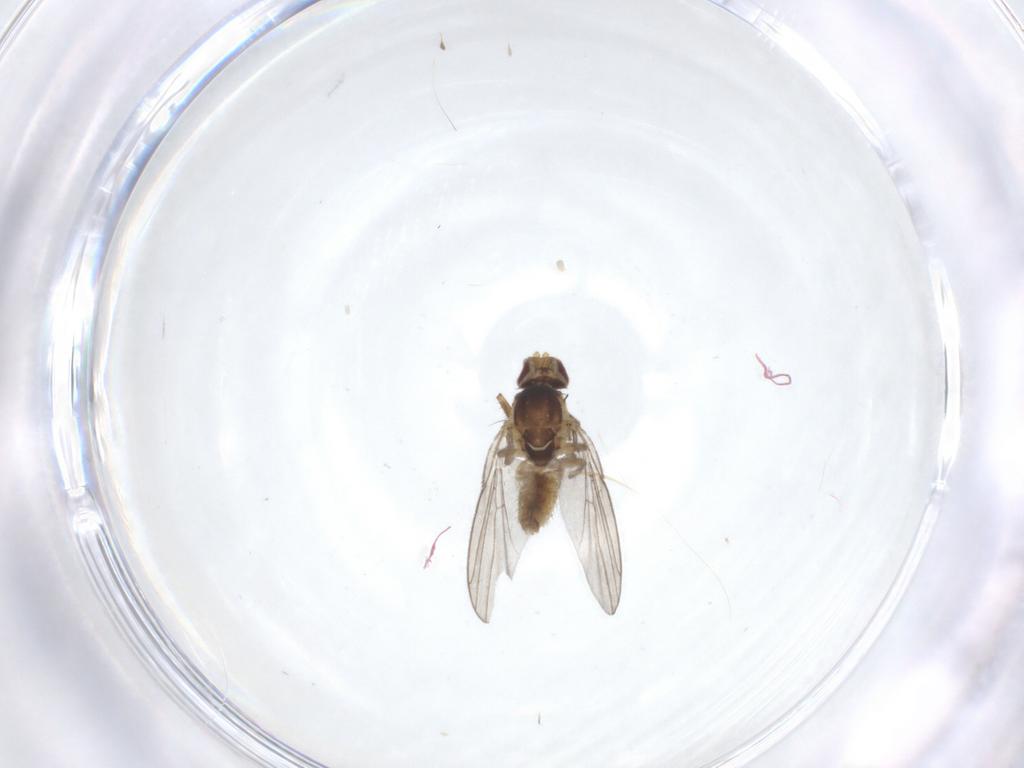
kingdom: Animalia
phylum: Arthropoda
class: Insecta
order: Diptera
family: Agromyzidae
